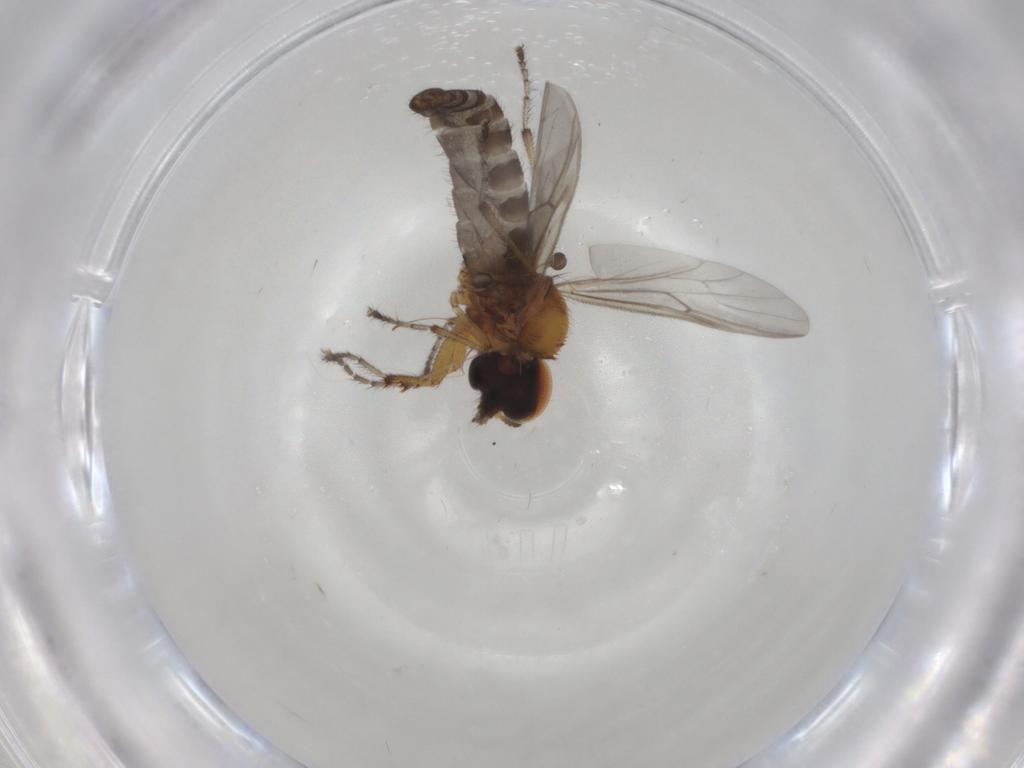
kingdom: Animalia
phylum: Arthropoda
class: Insecta
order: Diptera
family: Bibionidae
